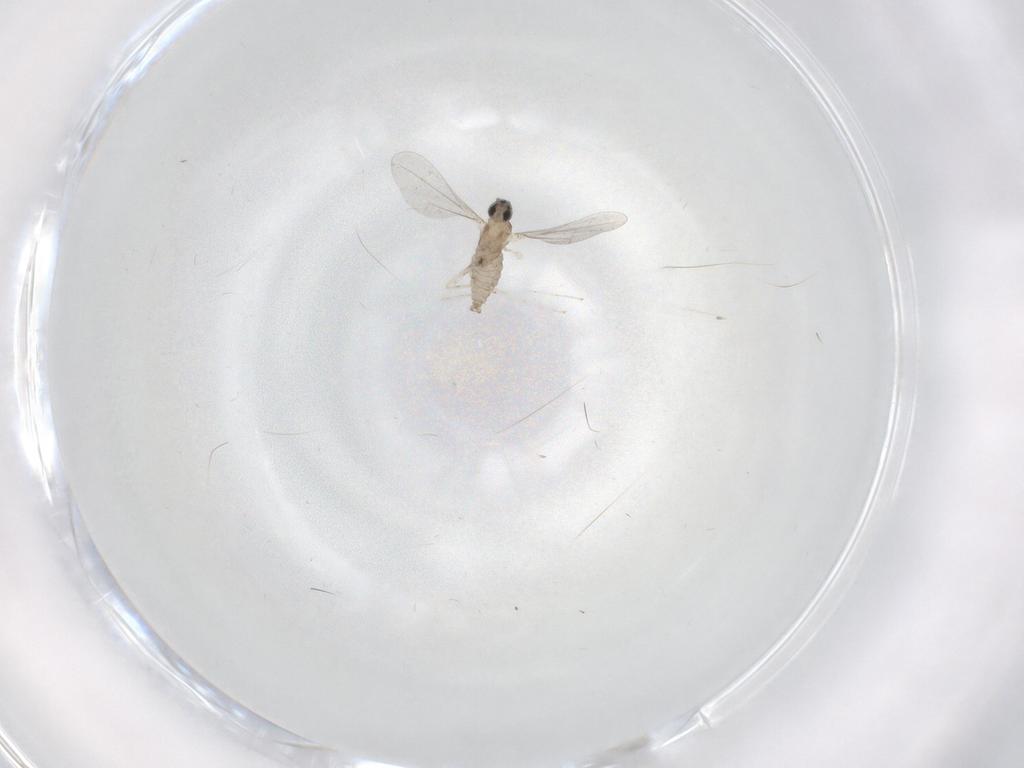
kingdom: Animalia
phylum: Arthropoda
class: Insecta
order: Diptera
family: Cecidomyiidae
